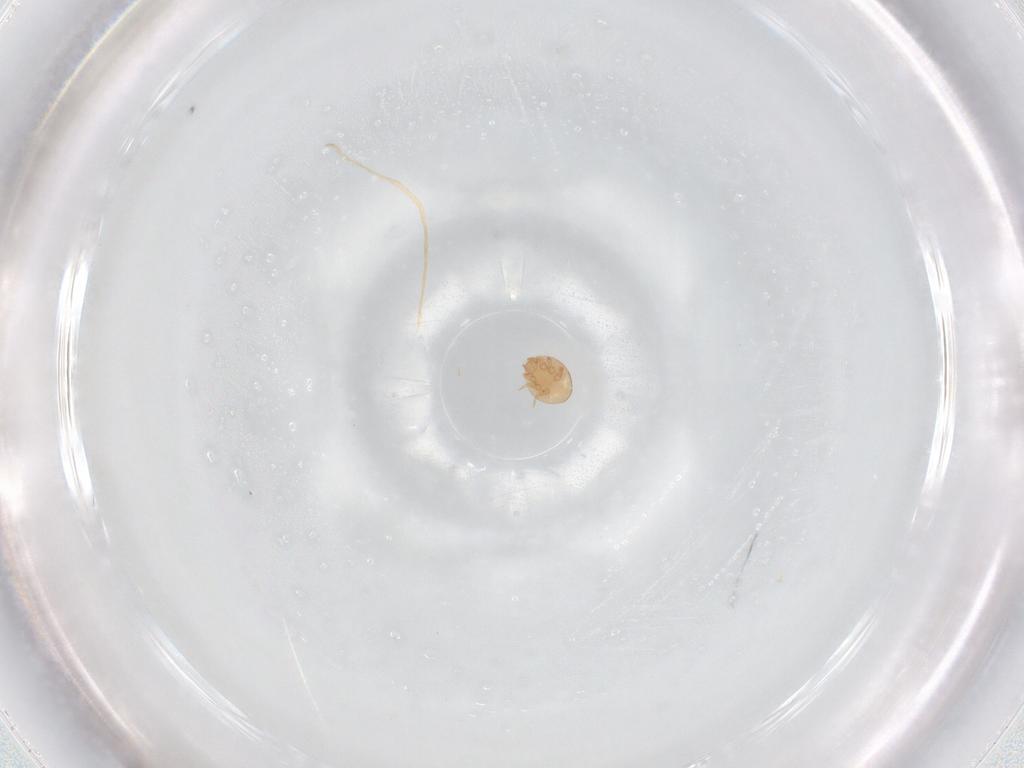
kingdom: Animalia
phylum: Arthropoda
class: Arachnida
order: Mesostigmata
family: Trematuridae
